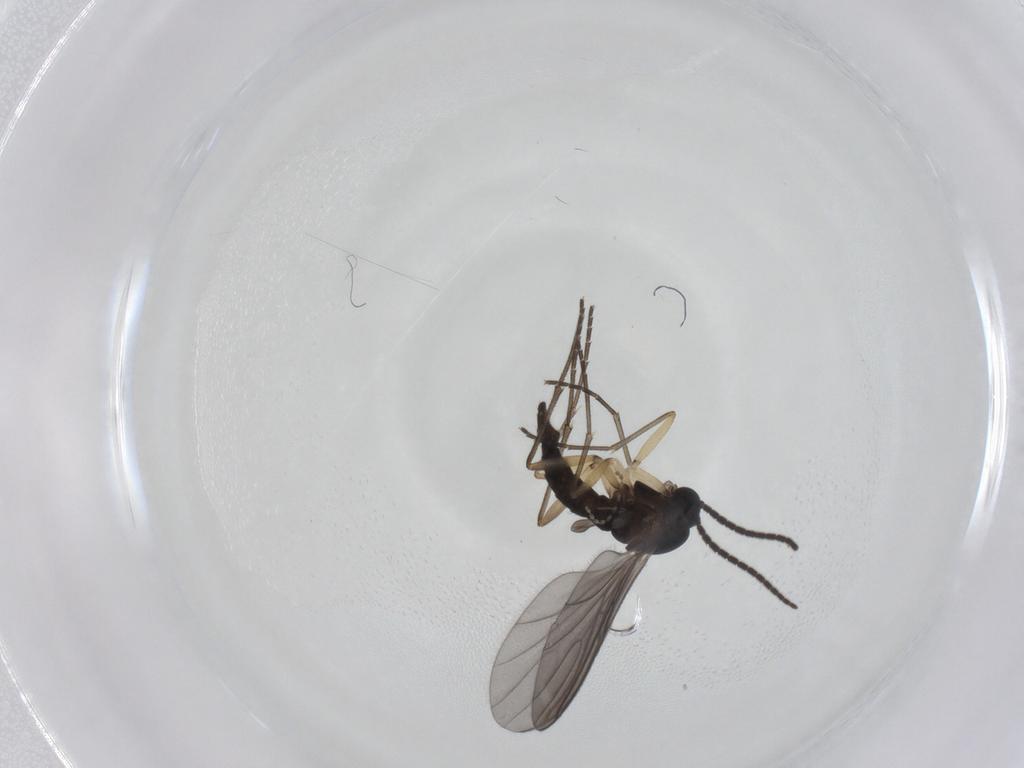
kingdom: Animalia
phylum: Arthropoda
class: Insecta
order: Diptera
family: Sciaridae
